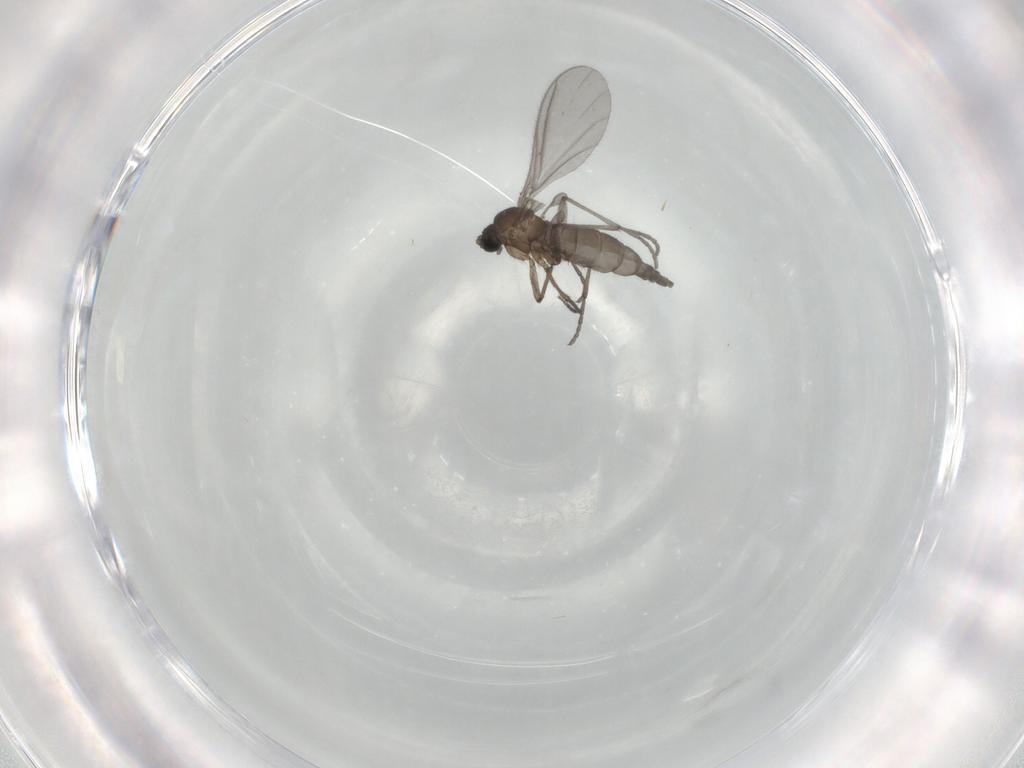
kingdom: Animalia
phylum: Arthropoda
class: Insecta
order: Diptera
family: Sciaridae
